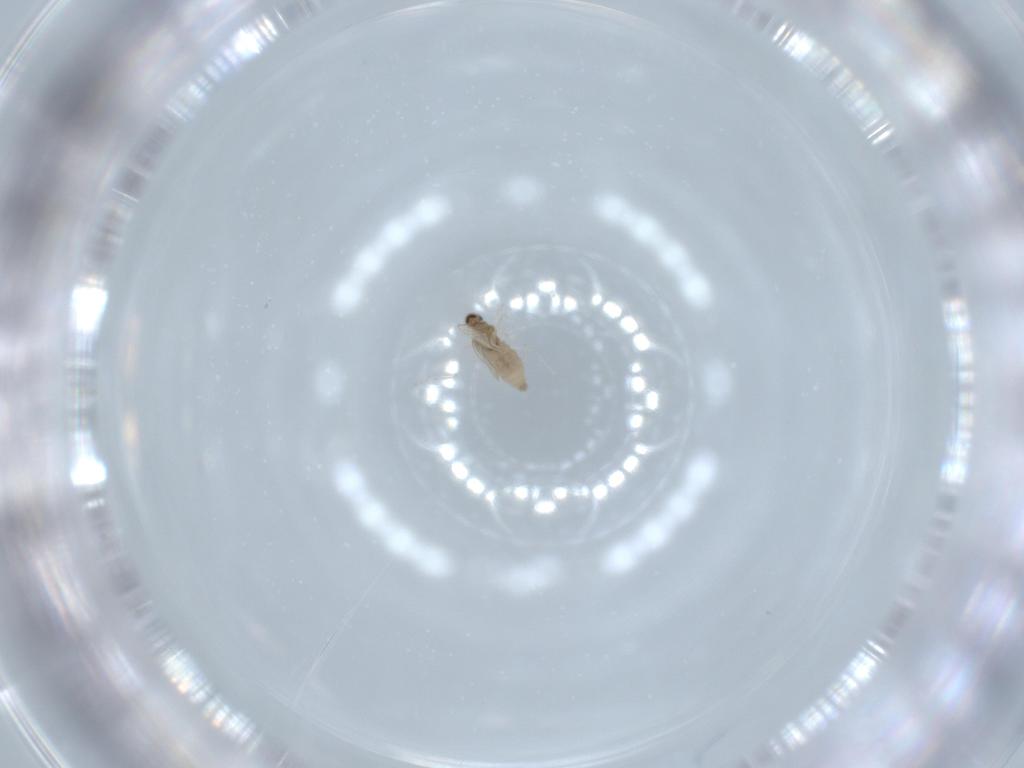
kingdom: Animalia
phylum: Arthropoda
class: Insecta
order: Diptera
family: Cecidomyiidae
